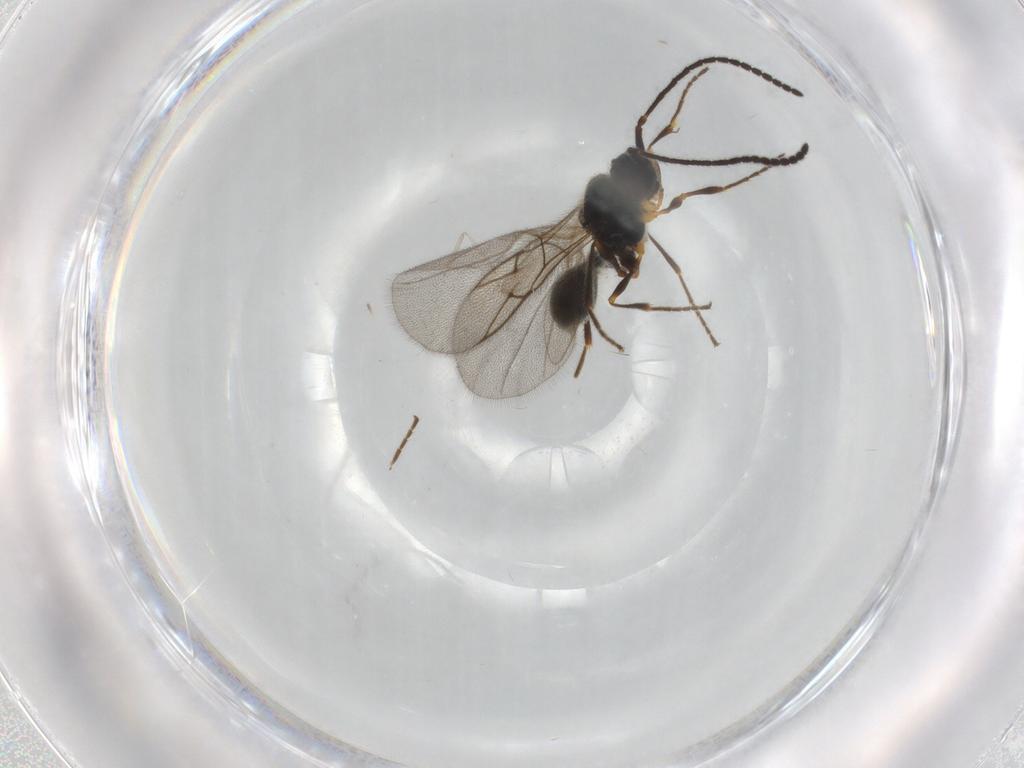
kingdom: Animalia
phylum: Arthropoda
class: Insecta
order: Hymenoptera
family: Diapriidae
